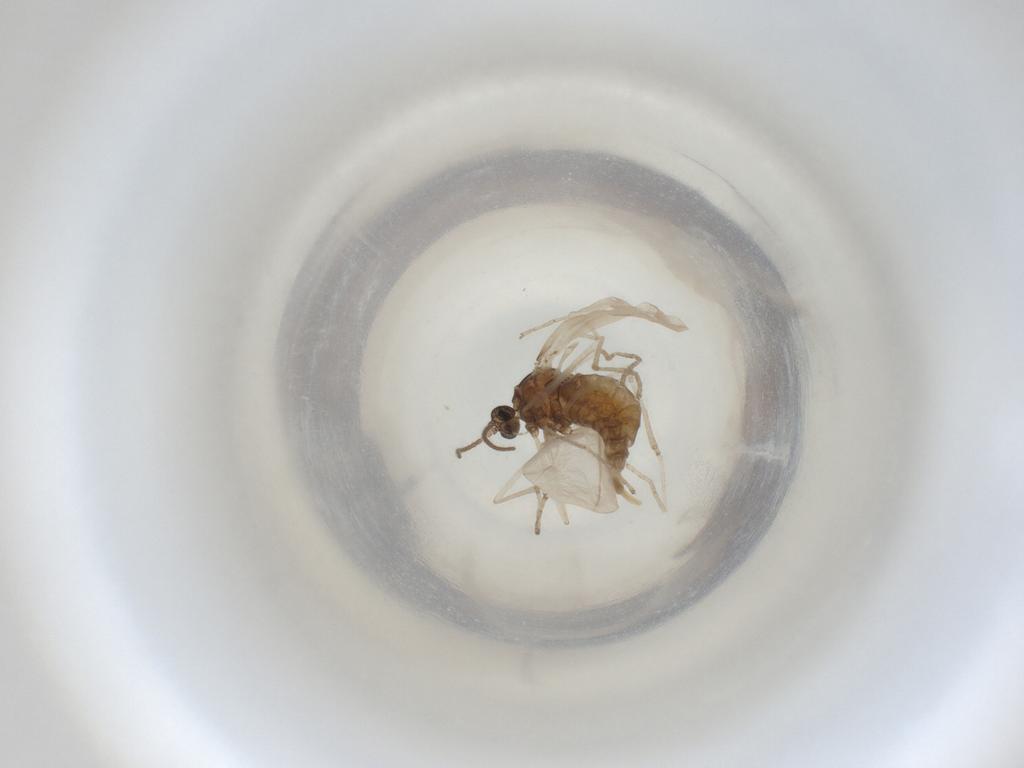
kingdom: Animalia
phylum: Arthropoda
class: Insecta
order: Diptera
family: Cecidomyiidae
